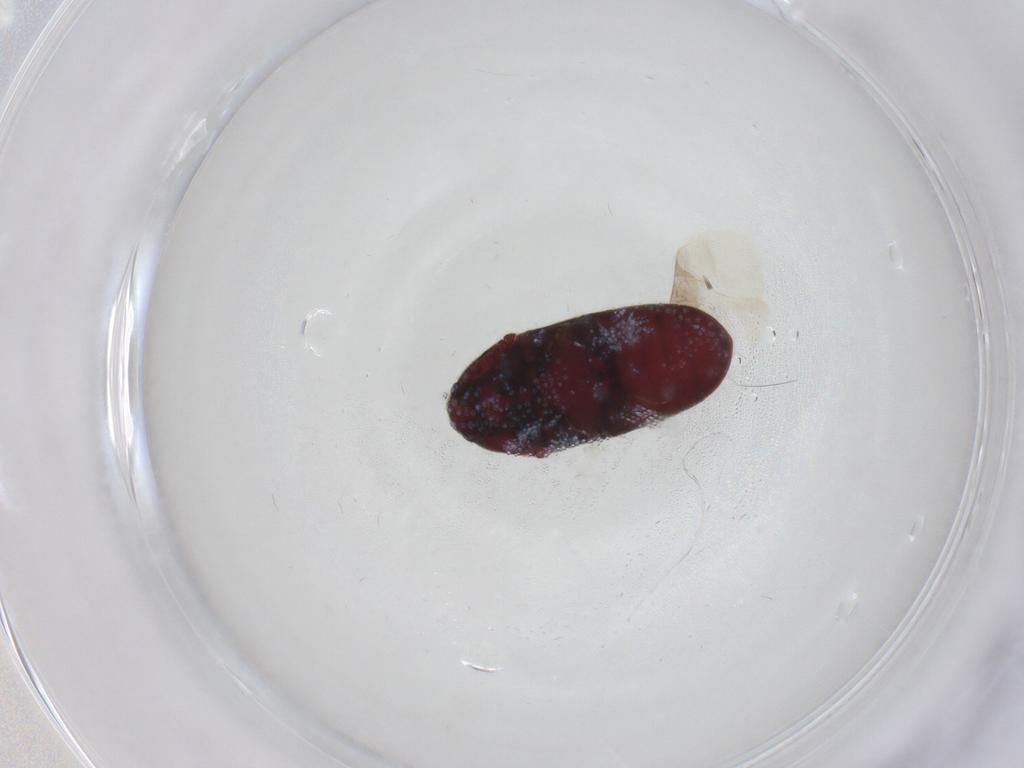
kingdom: Animalia
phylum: Arthropoda
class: Insecta
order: Coleoptera
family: Throscidae
